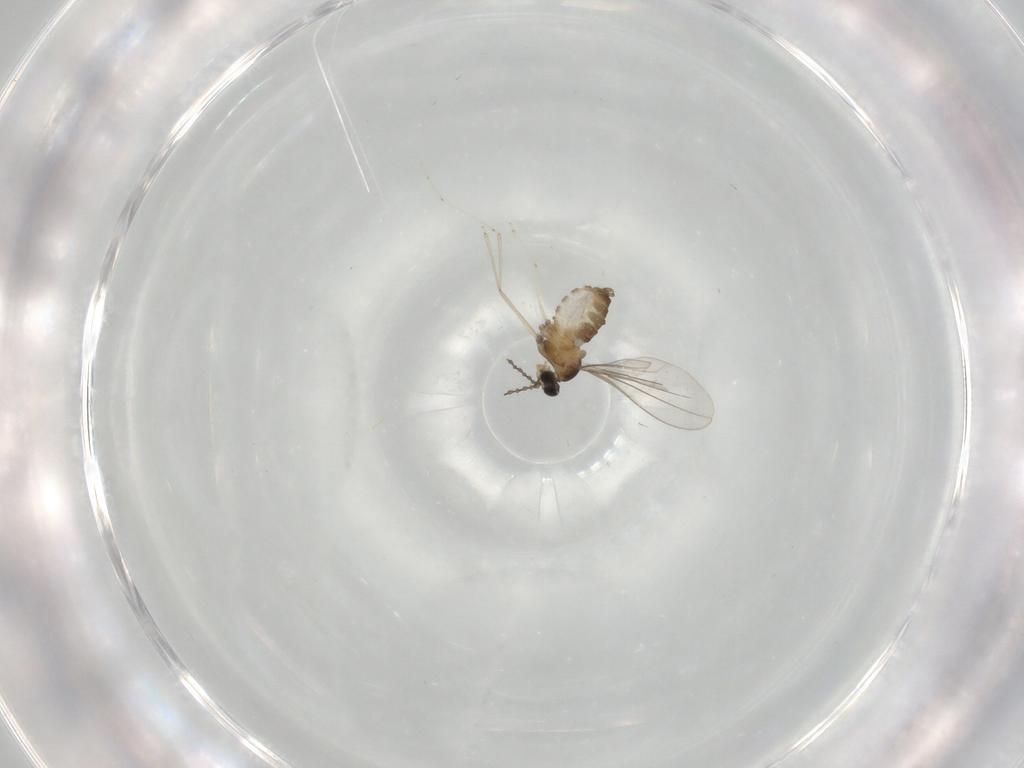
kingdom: Animalia
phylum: Arthropoda
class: Insecta
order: Diptera
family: Cecidomyiidae
